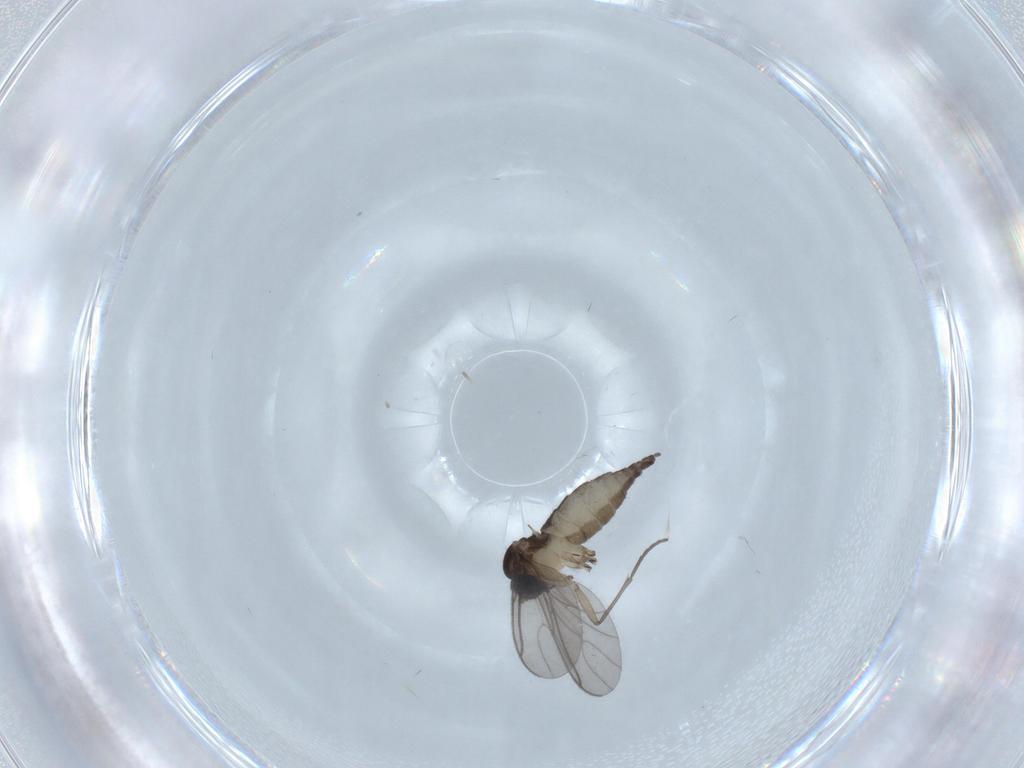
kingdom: Animalia
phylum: Arthropoda
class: Insecta
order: Diptera
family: Sciaridae
